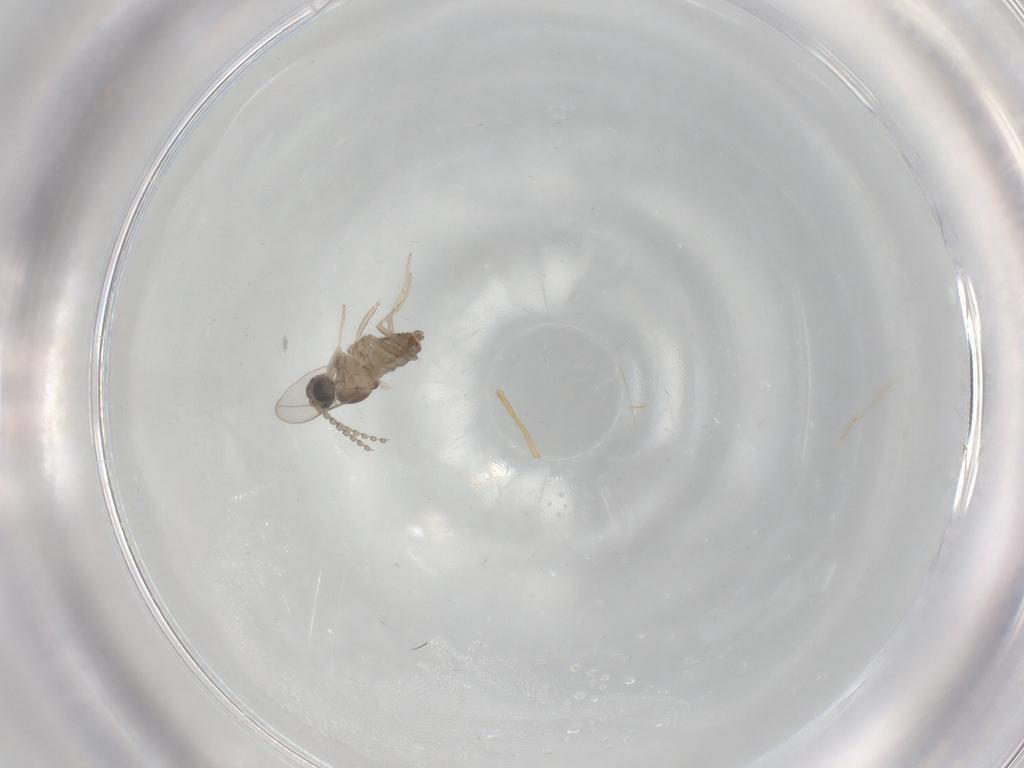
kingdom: Animalia
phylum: Arthropoda
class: Insecta
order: Diptera
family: Cecidomyiidae
